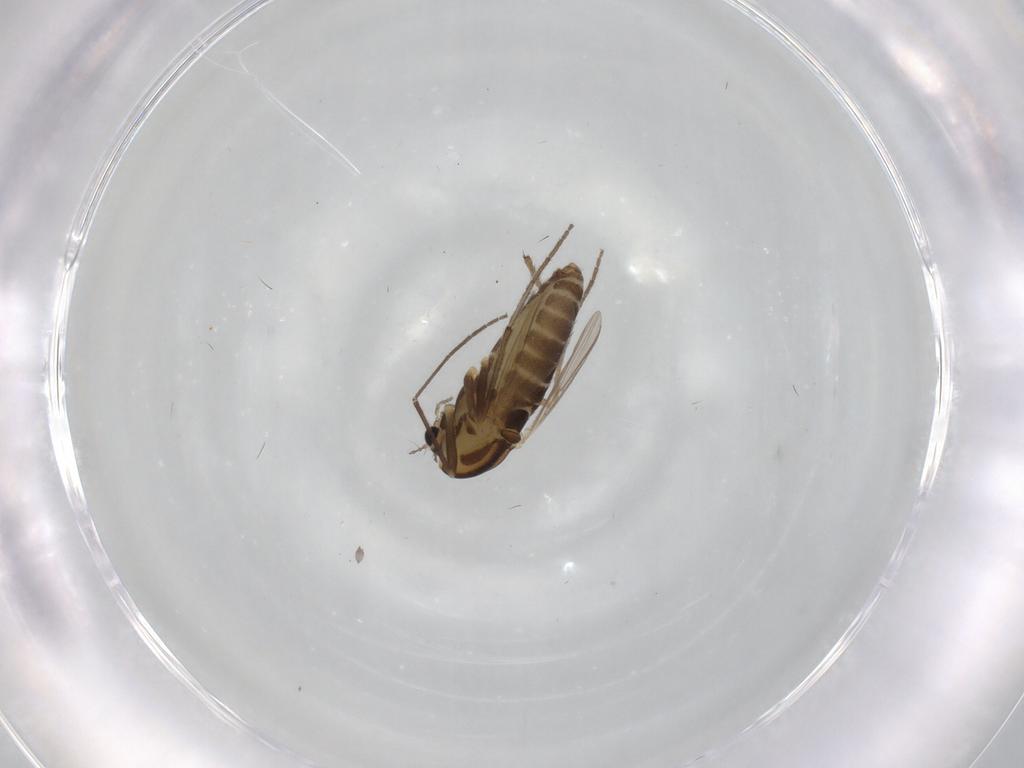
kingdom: Animalia
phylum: Arthropoda
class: Insecta
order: Diptera
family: Chironomidae
